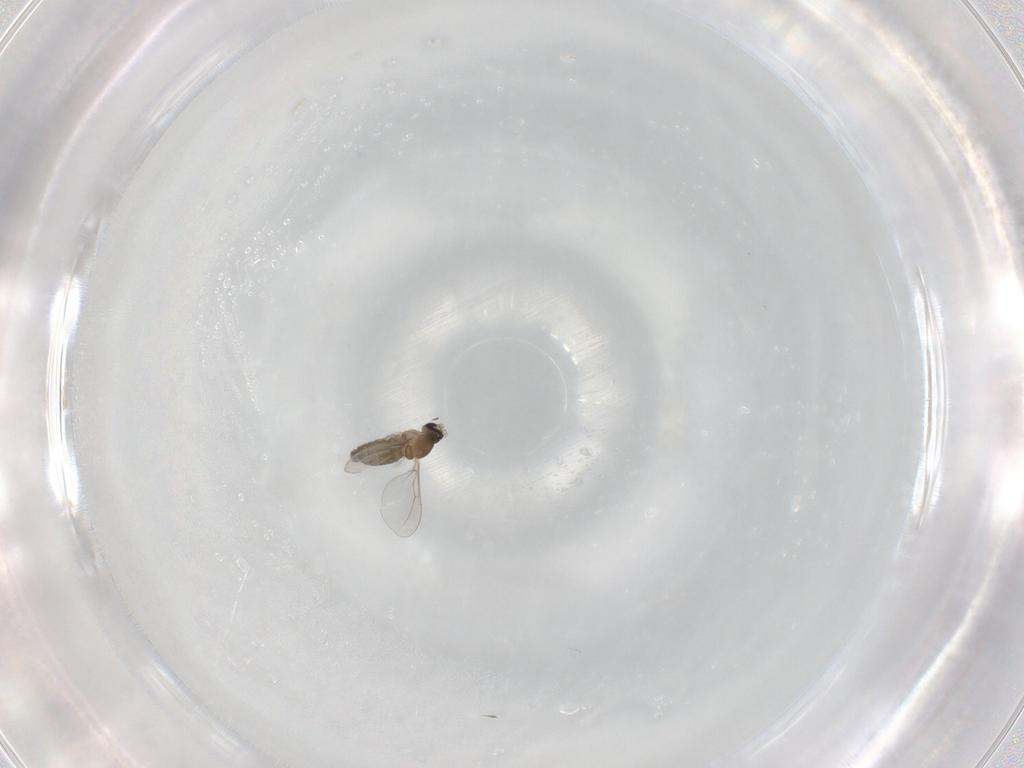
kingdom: Animalia
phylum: Arthropoda
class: Insecta
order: Diptera
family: Cecidomyiidae
